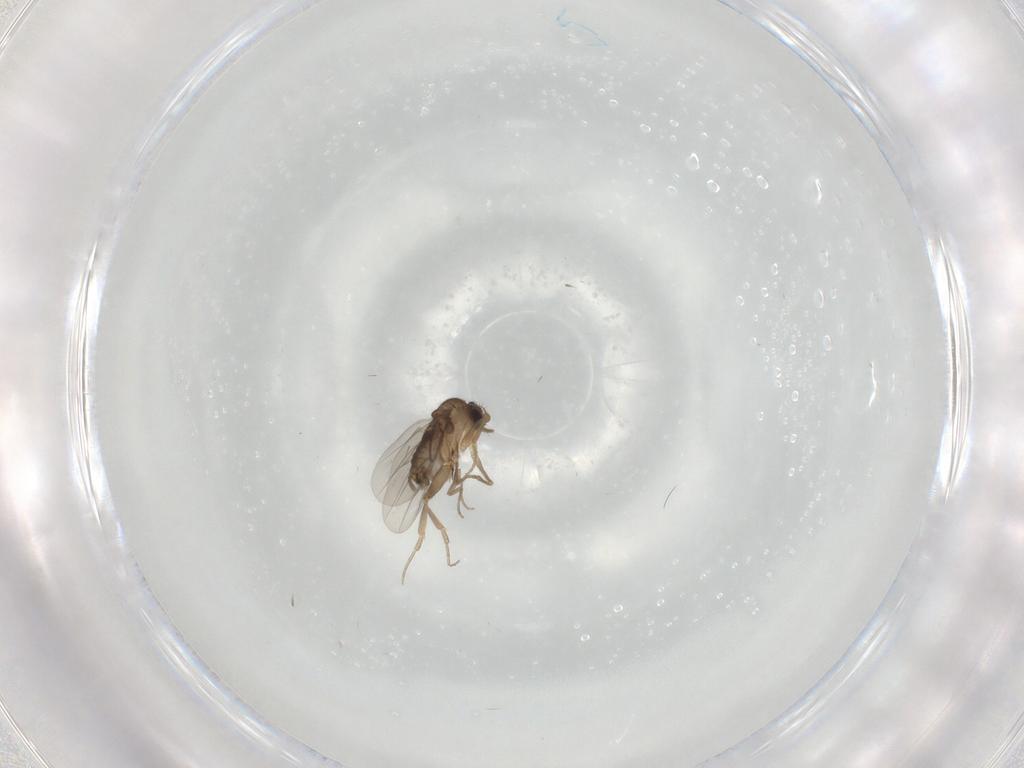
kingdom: Animalia
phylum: Arthropoda
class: Insecta
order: Diptera
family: Phoridae
